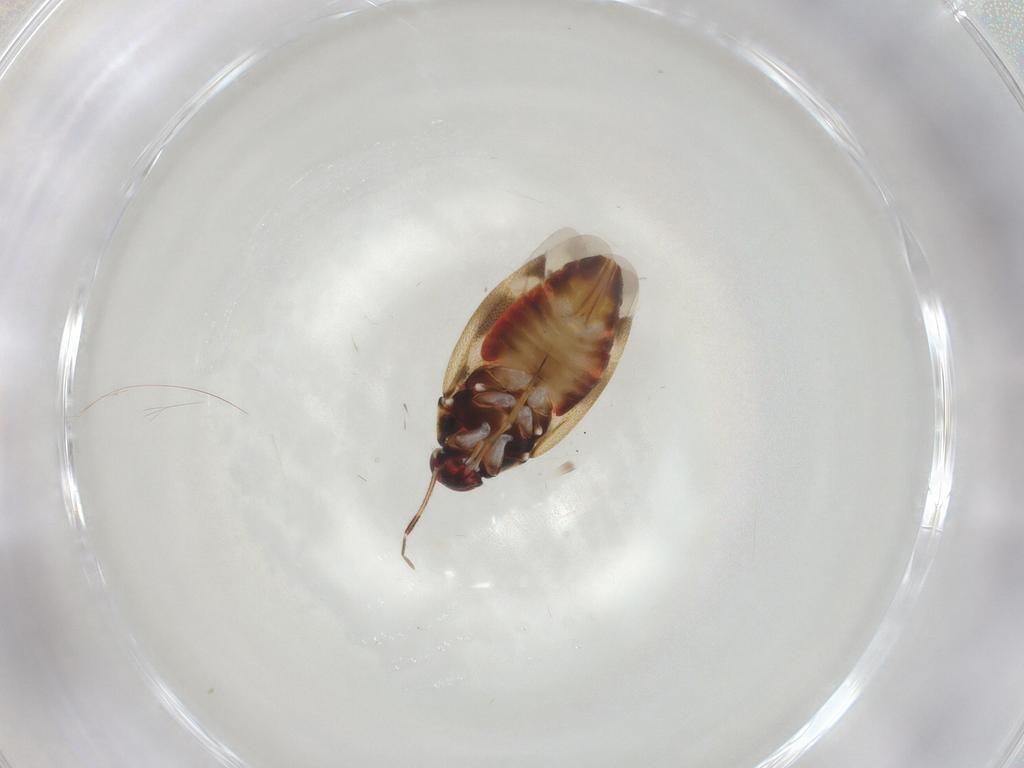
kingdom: Animalia
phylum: Arthropoda
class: Insecta
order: Hemiptera
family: Miridae
